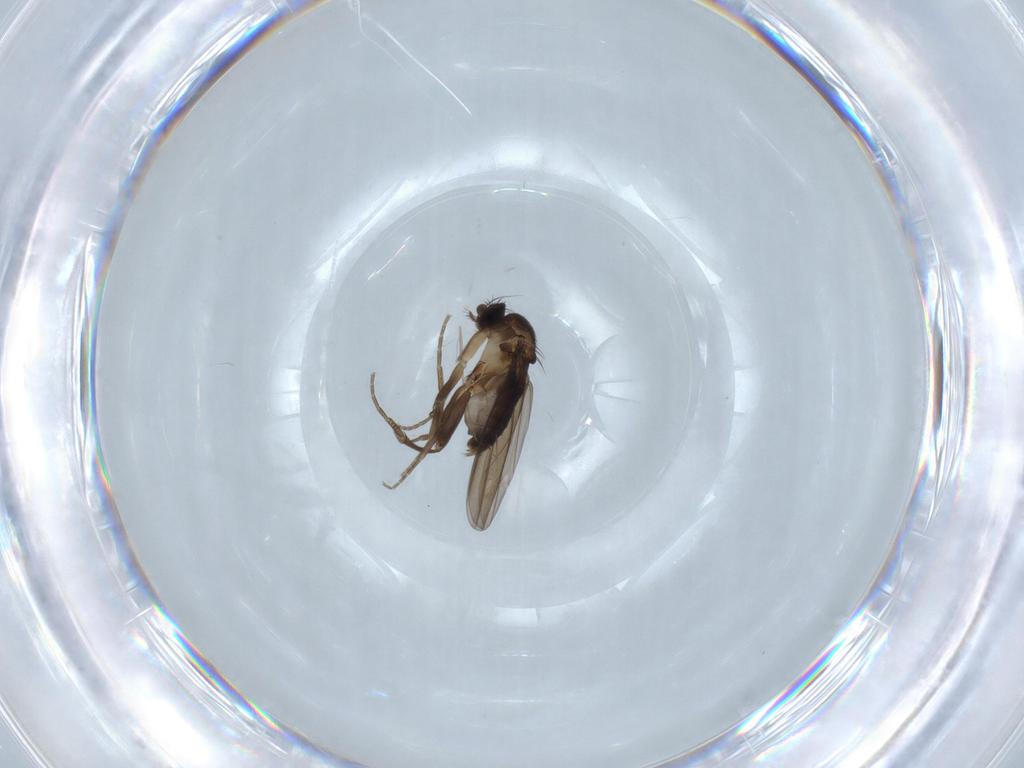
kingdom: Animalia
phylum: Arthropoda
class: Insecta
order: Diptera
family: Phoridae
